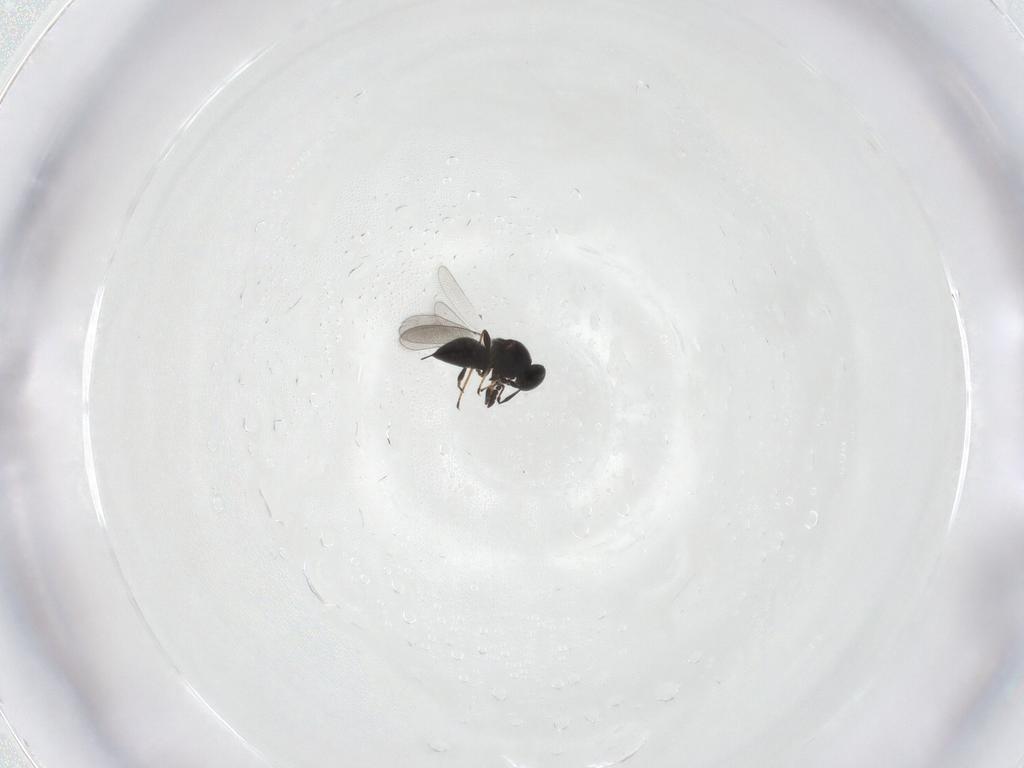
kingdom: Animalia
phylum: Arthropoda
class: Insecta
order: Hymenoptera
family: Platygastridae
